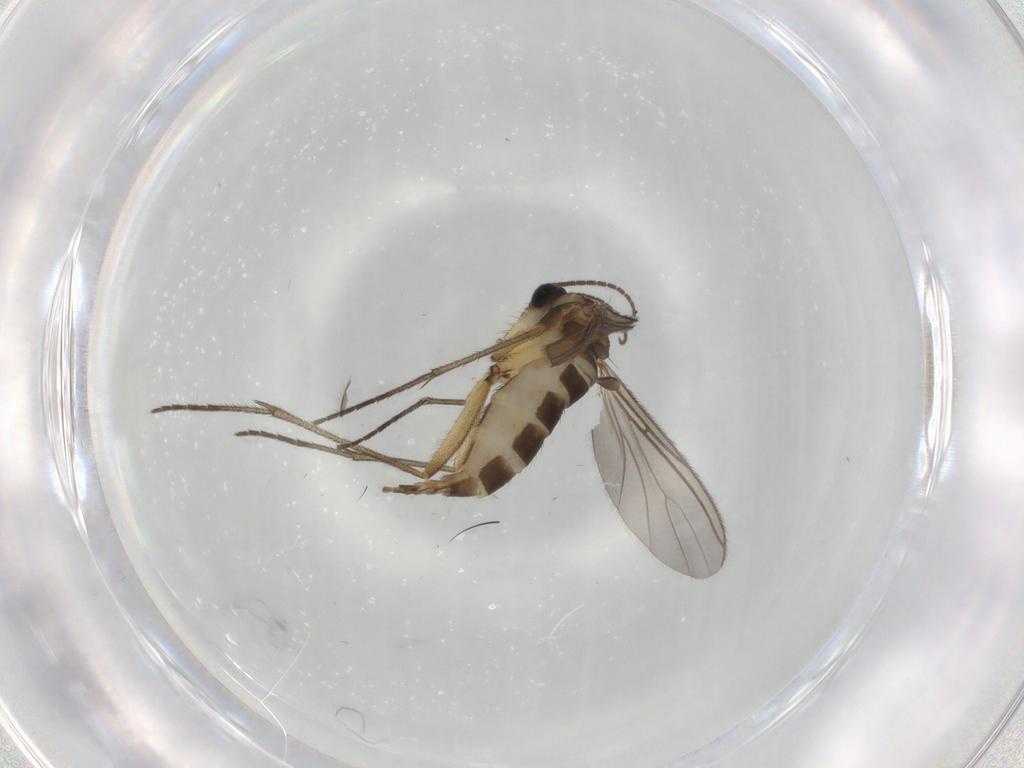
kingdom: Animalia
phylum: Arthropoda
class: Insecta
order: Diptera
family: Sciaridae
